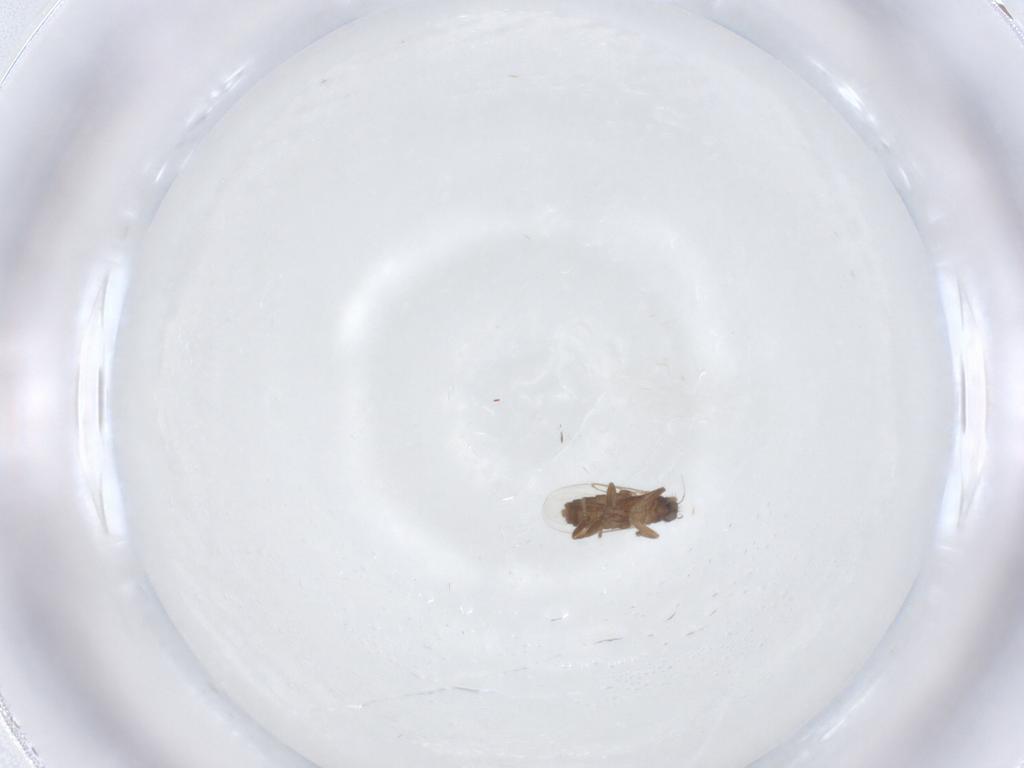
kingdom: Animalia
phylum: Arthropoda
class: Insecta
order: Diptera
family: Phoridae
